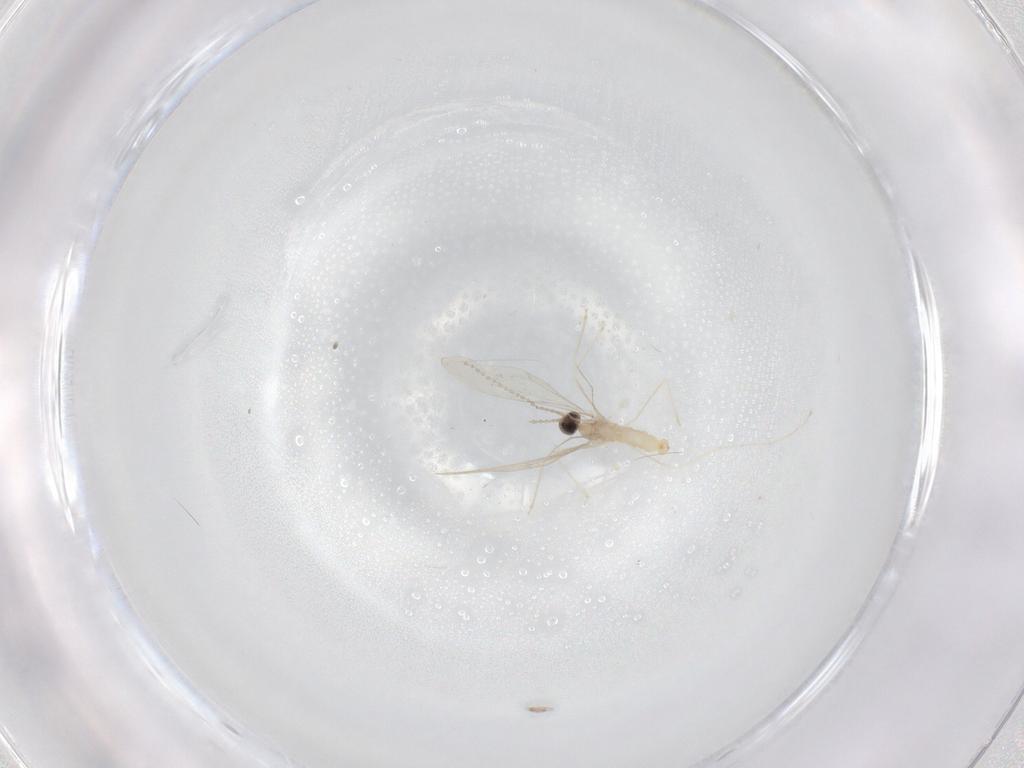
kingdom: Animalia
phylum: Arthropoda
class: Insecta
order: Diptera
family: Cecidomyiidae
